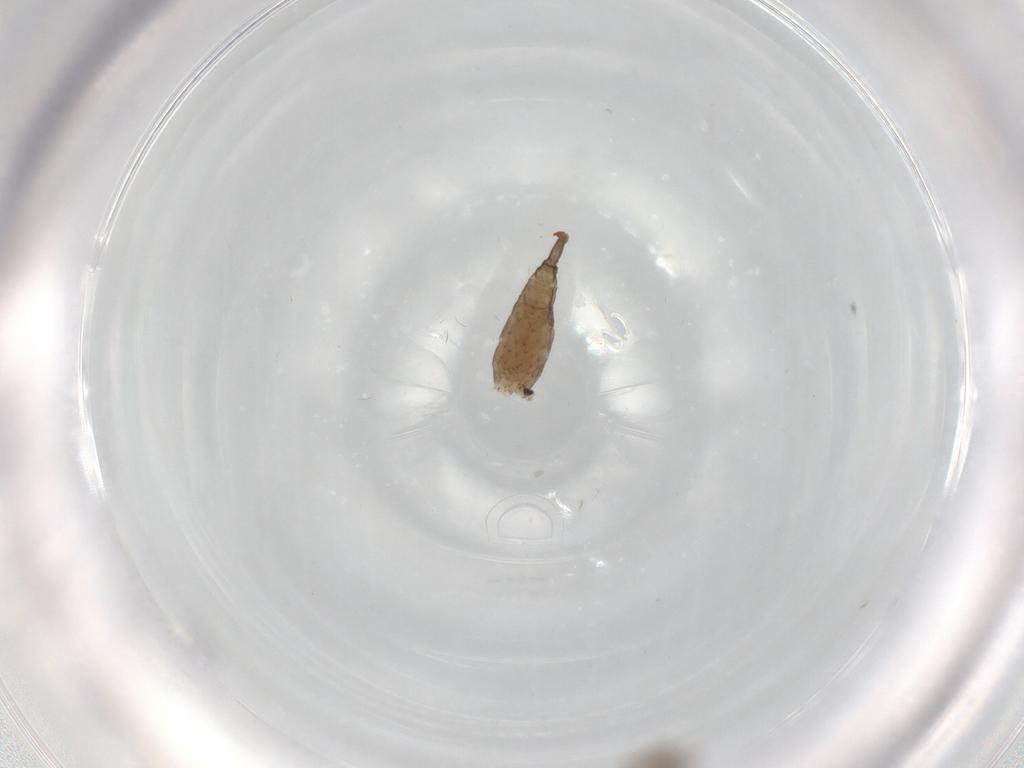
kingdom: Animalia
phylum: Arthropoda
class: Insecta
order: Diptera
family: Cecidomyiidae
